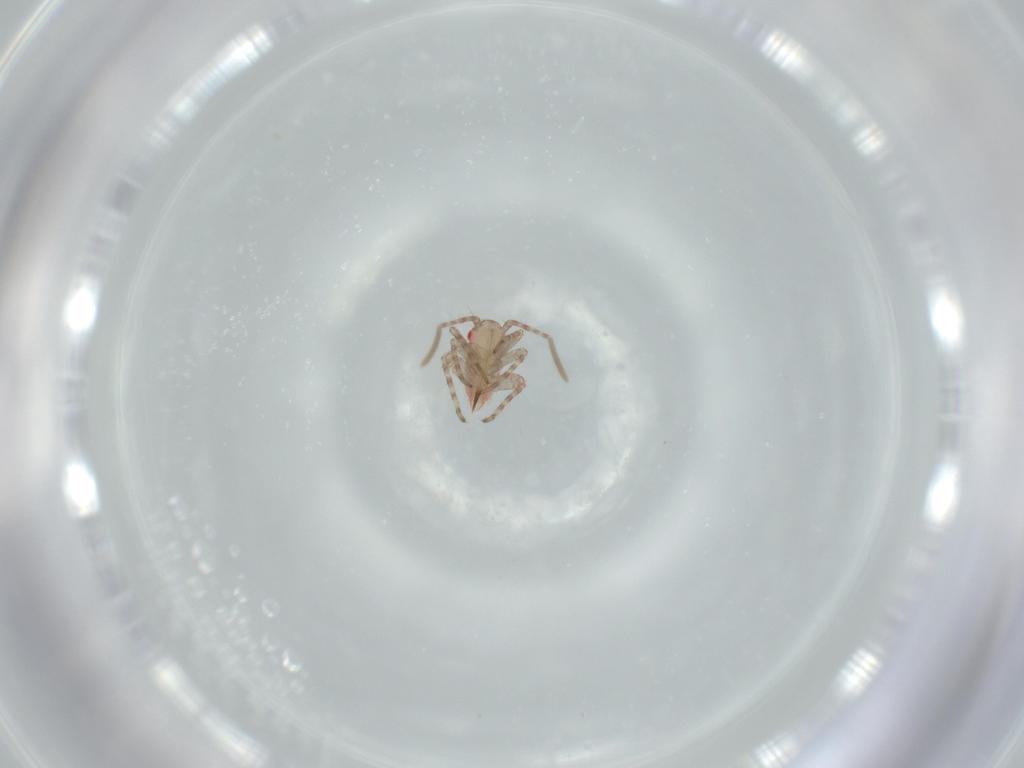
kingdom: Animalia
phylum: Arthropoda
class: Insecta
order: Hemiptera
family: Miridae
